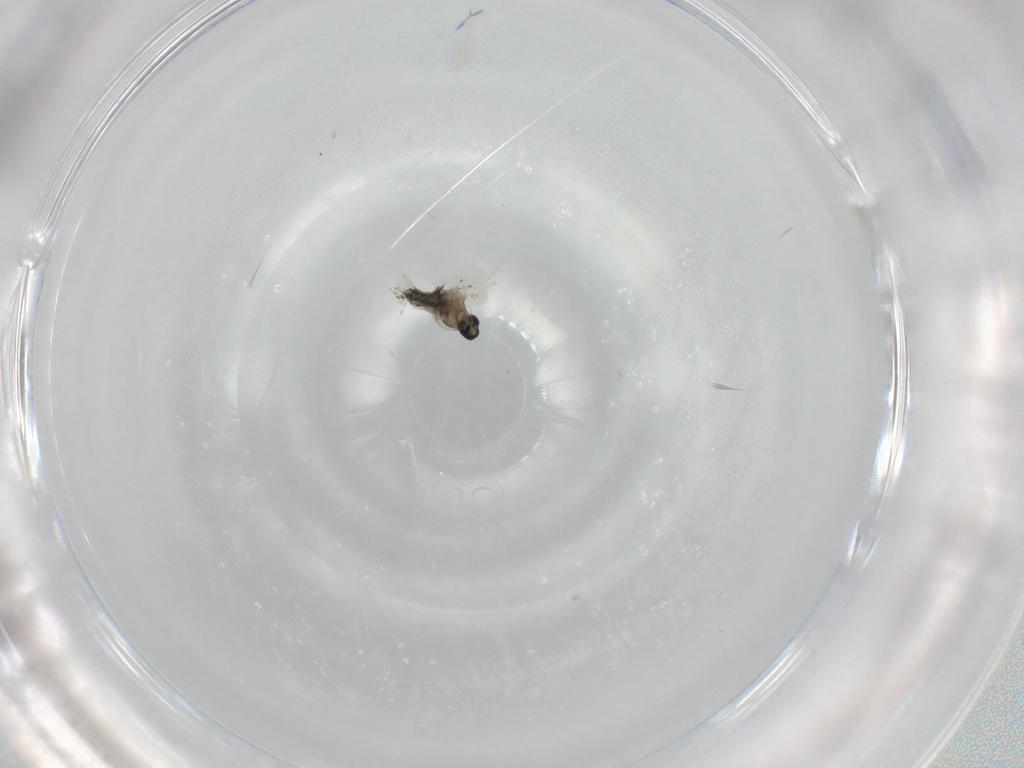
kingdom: Animalia
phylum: Arthropoda
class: Insecta
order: Diptera
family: Cecidomyiidae
